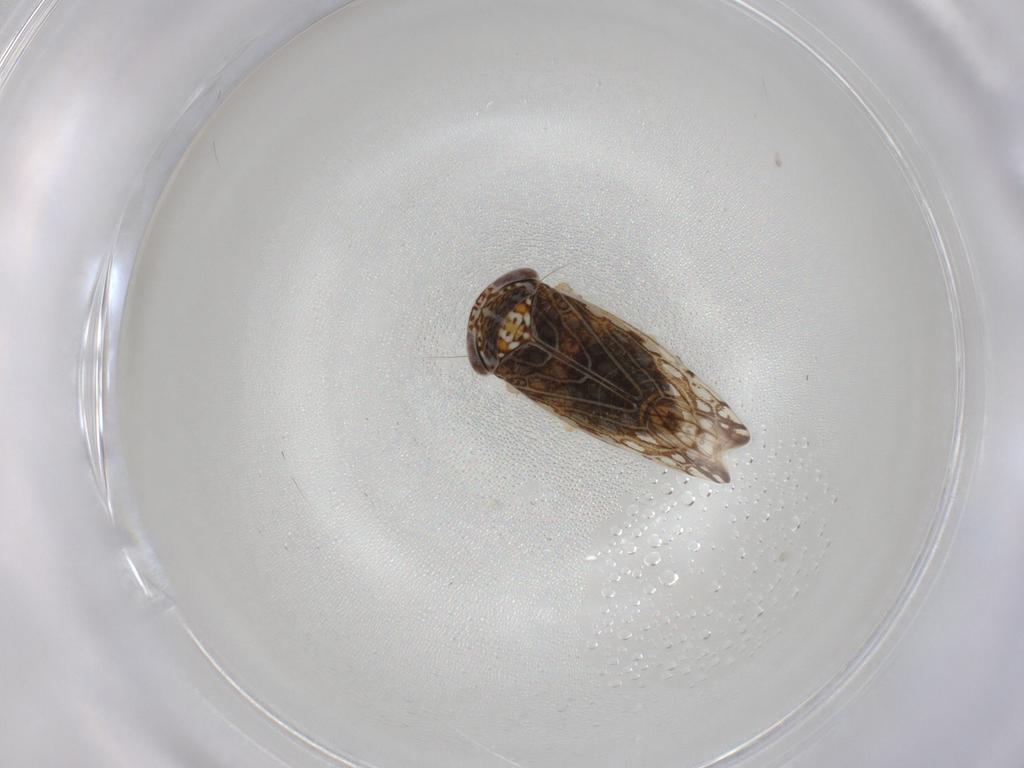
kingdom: Animalia
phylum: Arthropoda
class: Insecta
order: Hemiptera
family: Cicadellidae
